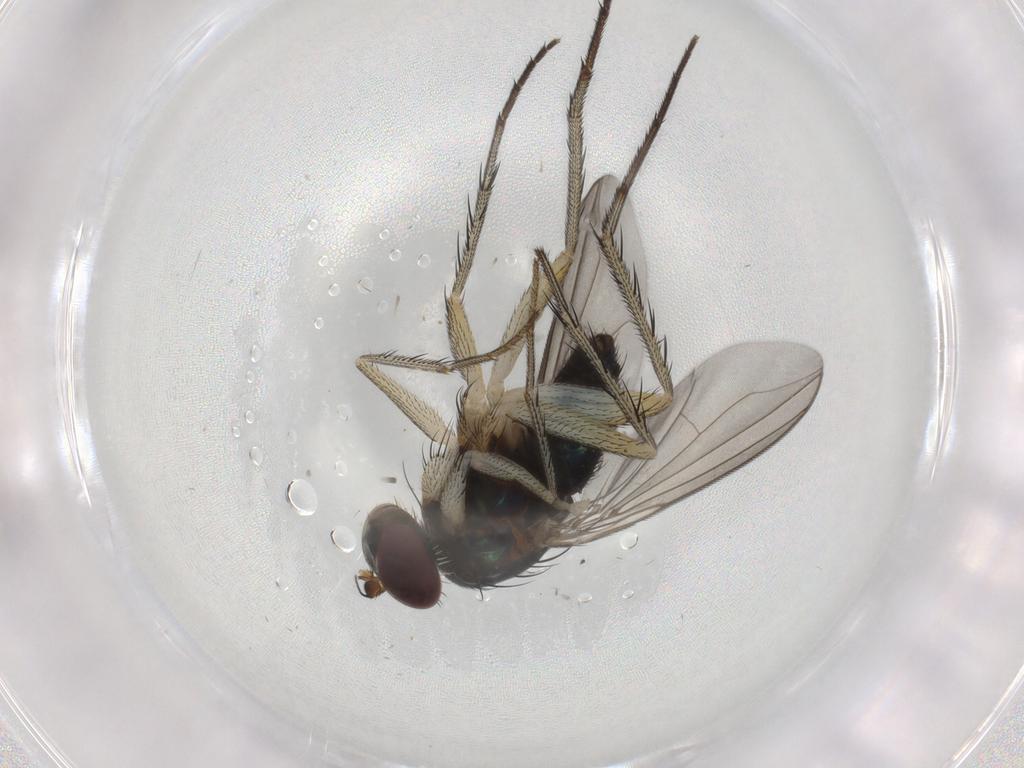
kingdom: Animalia
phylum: Arthropoda
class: Insecta
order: Diptera
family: Dolichopodidae
